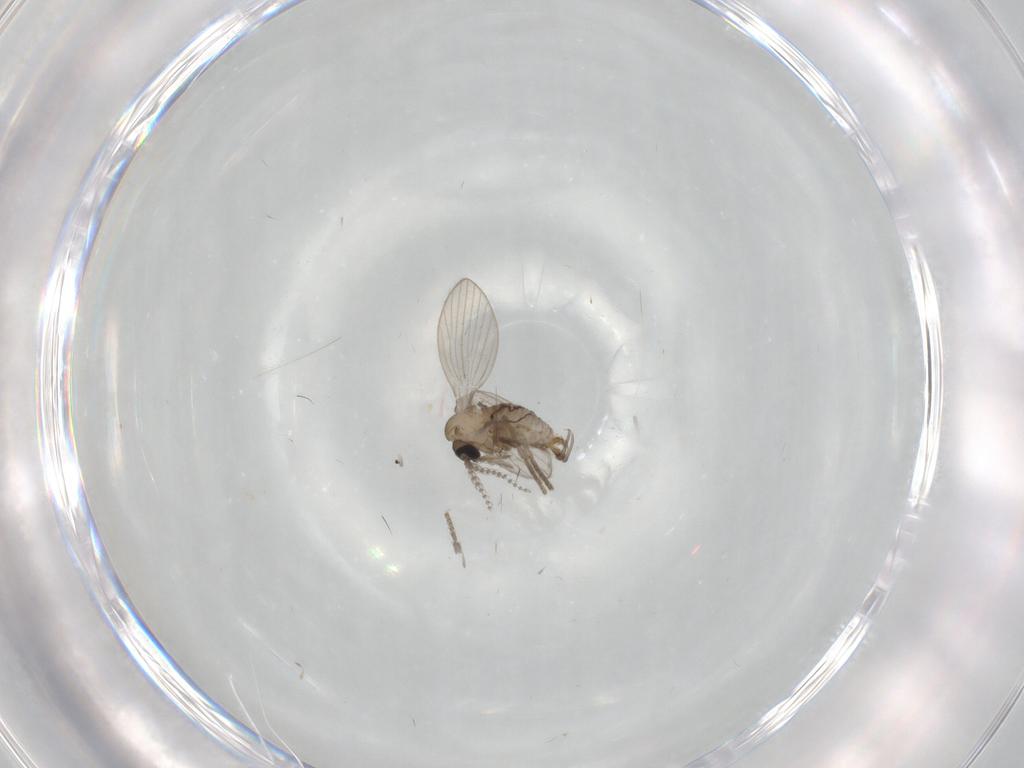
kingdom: Animalia
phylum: Arthropoda
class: Insecta
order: Diptera
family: Psychodidae
